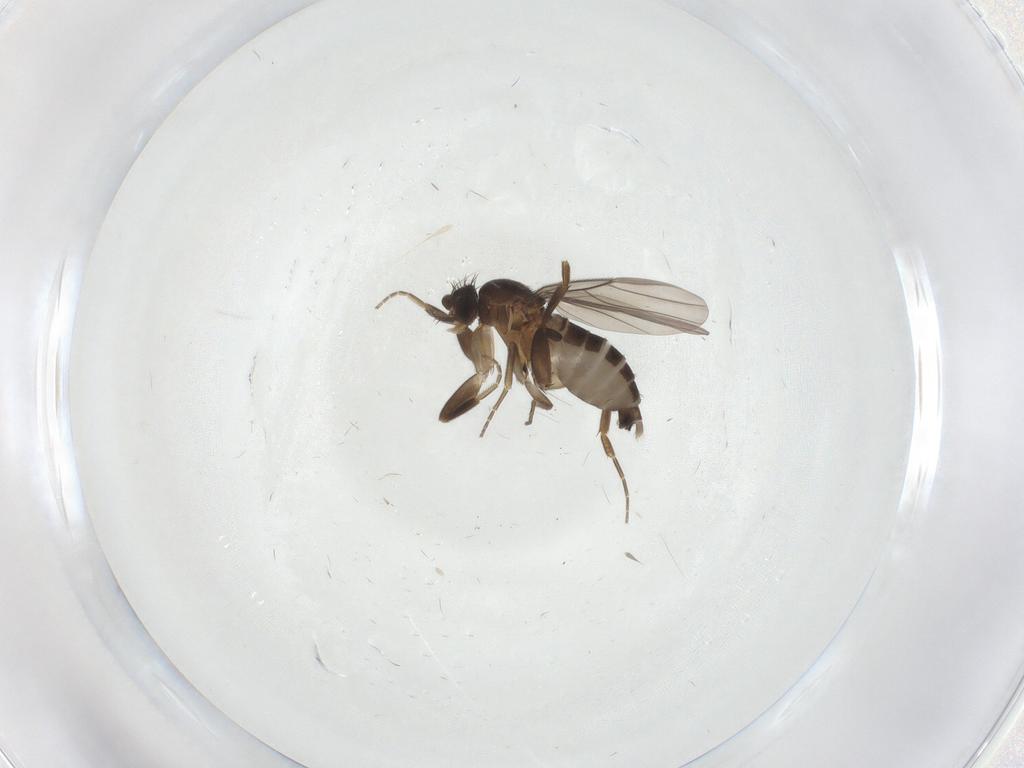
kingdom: Animalia
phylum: Arthropoda
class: Insecta
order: Diptera
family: Phoridae
